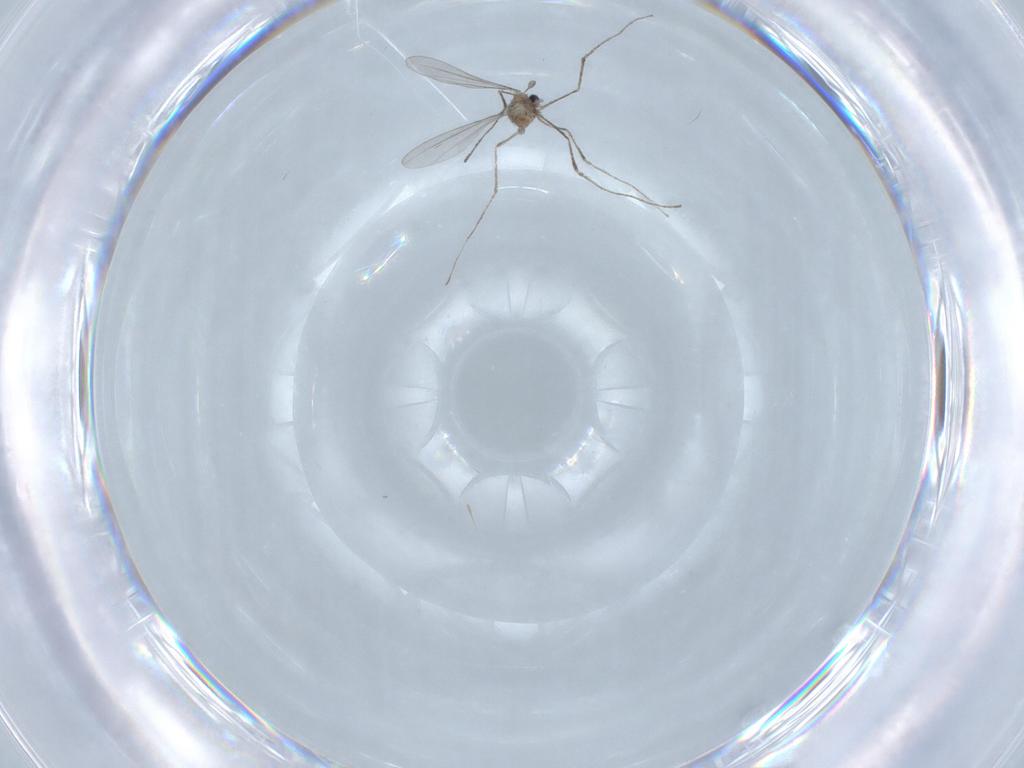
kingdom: Animalia
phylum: Arthropoda
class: Insecta
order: Diptera
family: Cecidomyiidae
